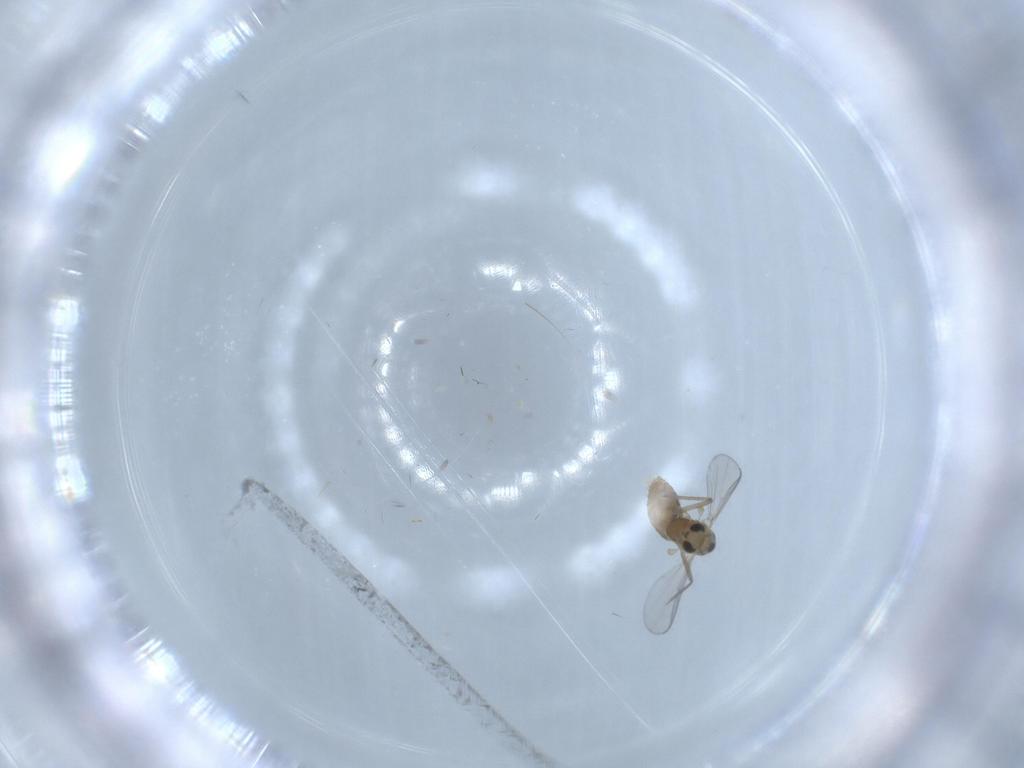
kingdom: Animalia
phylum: Arthropoda
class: Insecta
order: Diptera
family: Chironomidae
